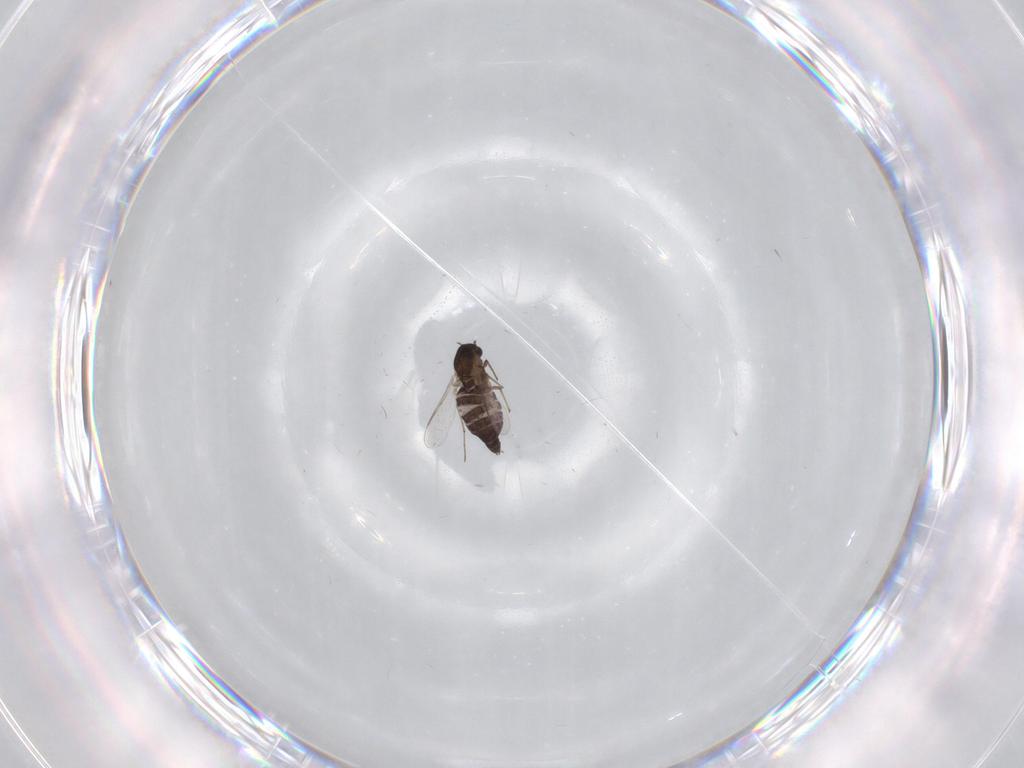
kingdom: Animalia
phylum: Arthropoda
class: Insecta
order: Diptera
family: Chironomidae
